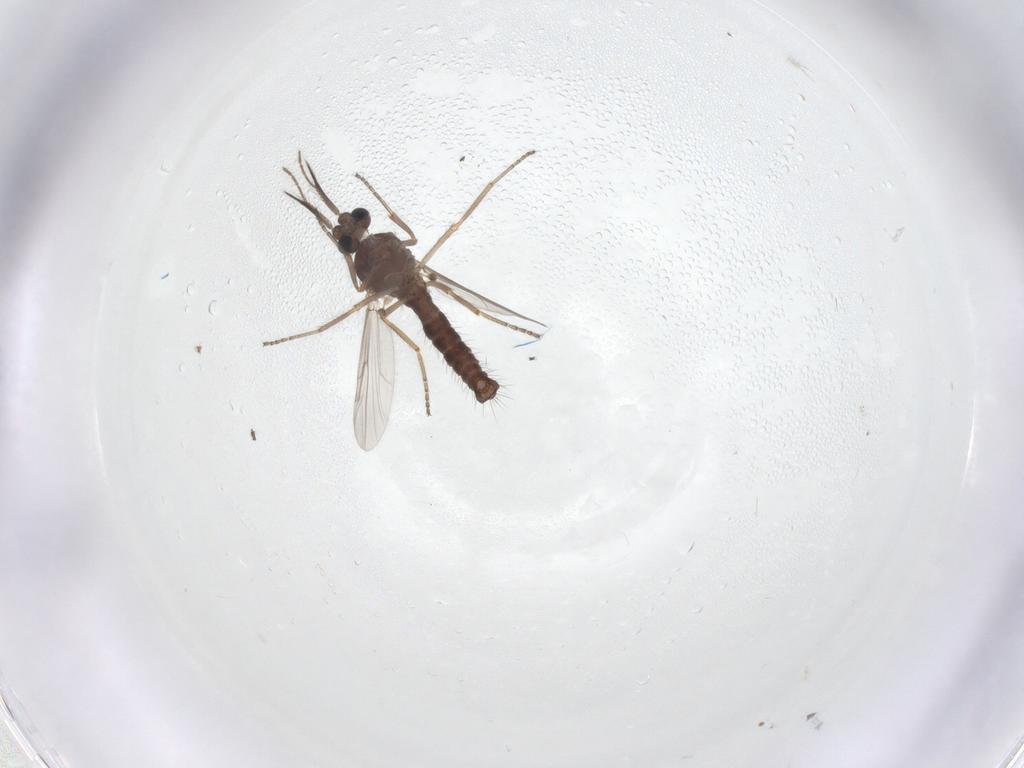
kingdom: Animalia
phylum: Arthropoda
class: Insecta
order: Diptera
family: Ceratopogonidae
